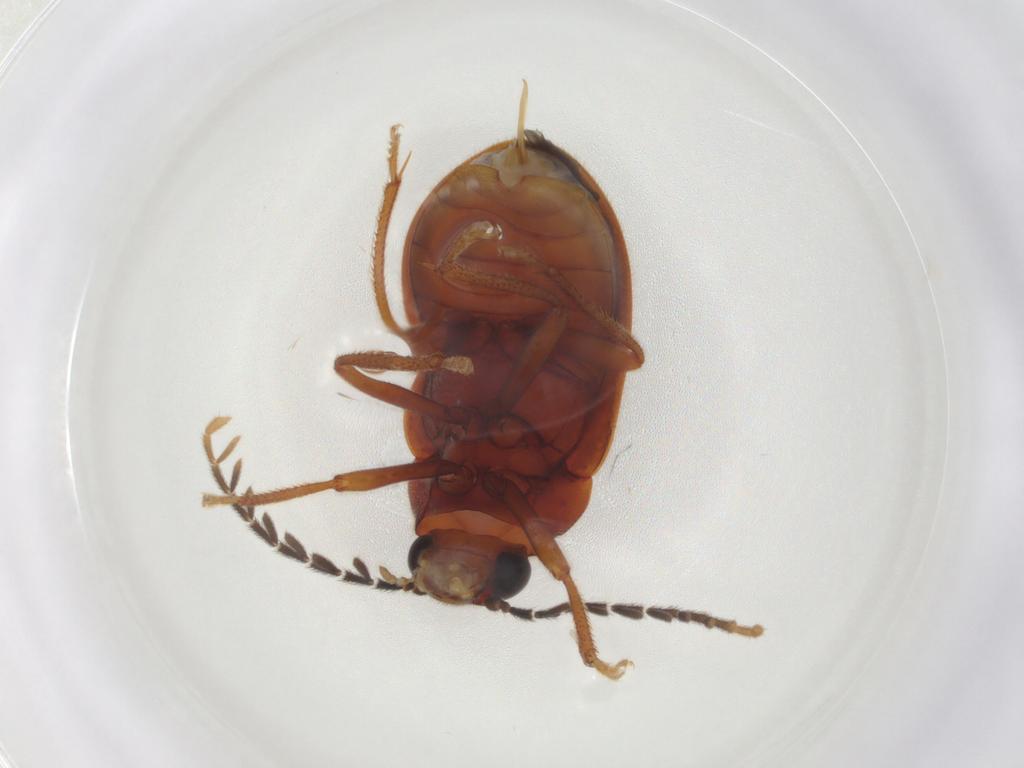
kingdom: Animalia
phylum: Arthropoda
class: Insecta
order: Coleoptera
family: Ptilodactylidae
